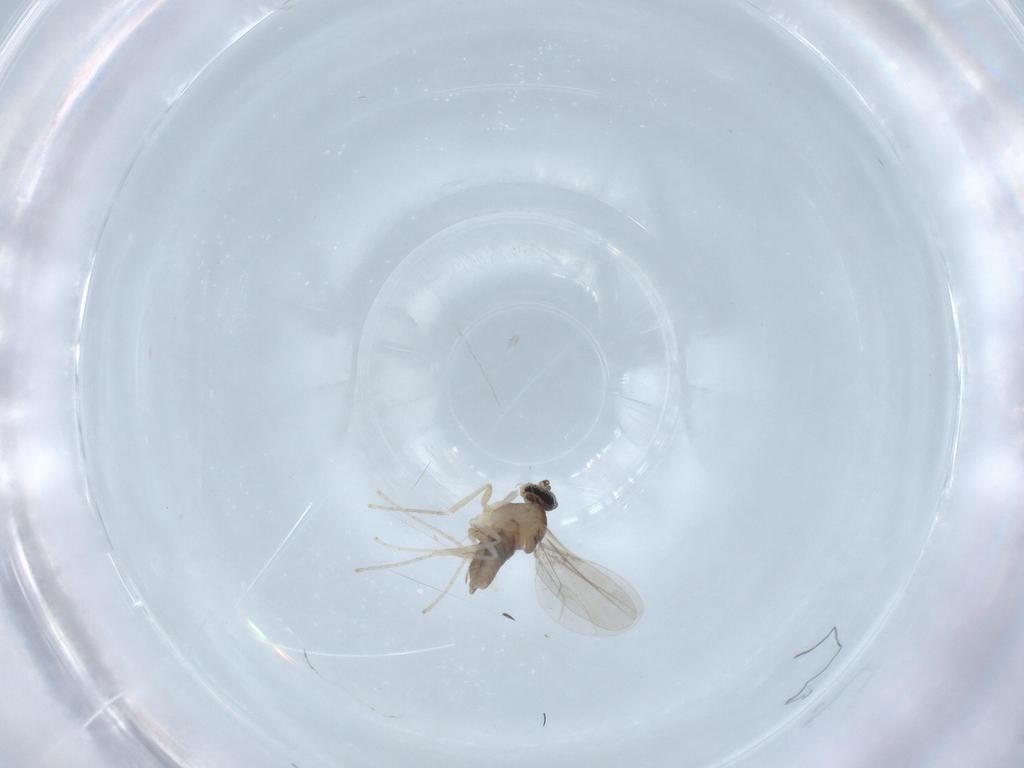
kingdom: Animalia
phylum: Arthropoda
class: Insecta
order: Diptera
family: Cecidomyiidae
